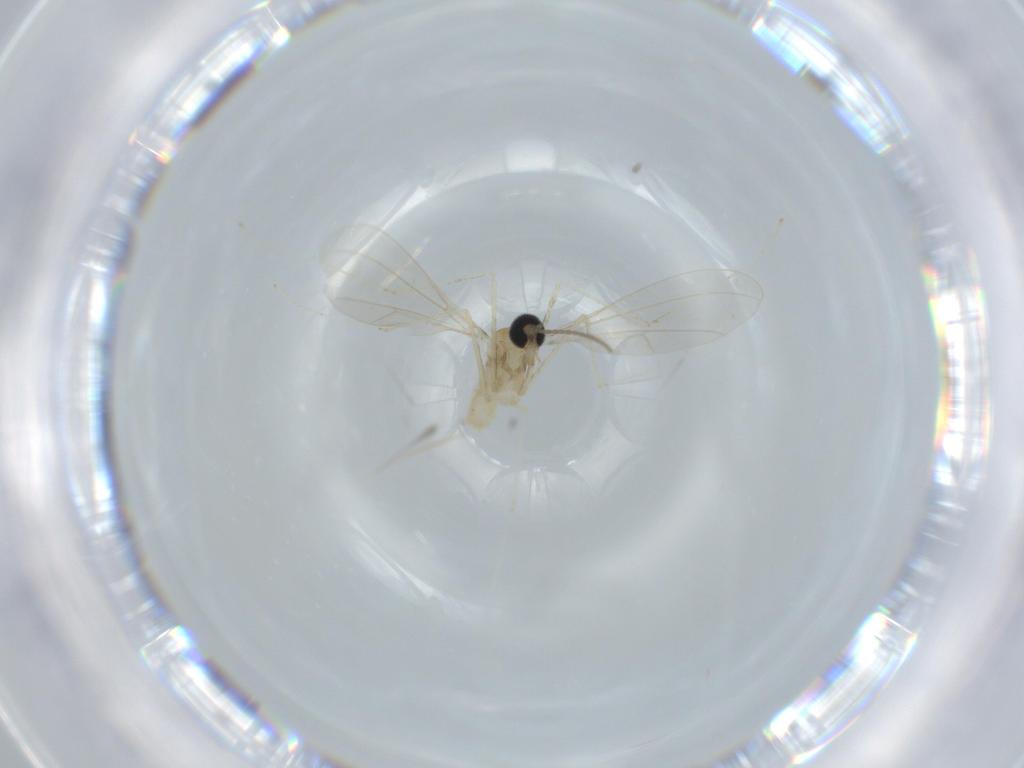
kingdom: Animalia
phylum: Arthropoda
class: Insecta
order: Diptera
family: Cecidomyiidae
